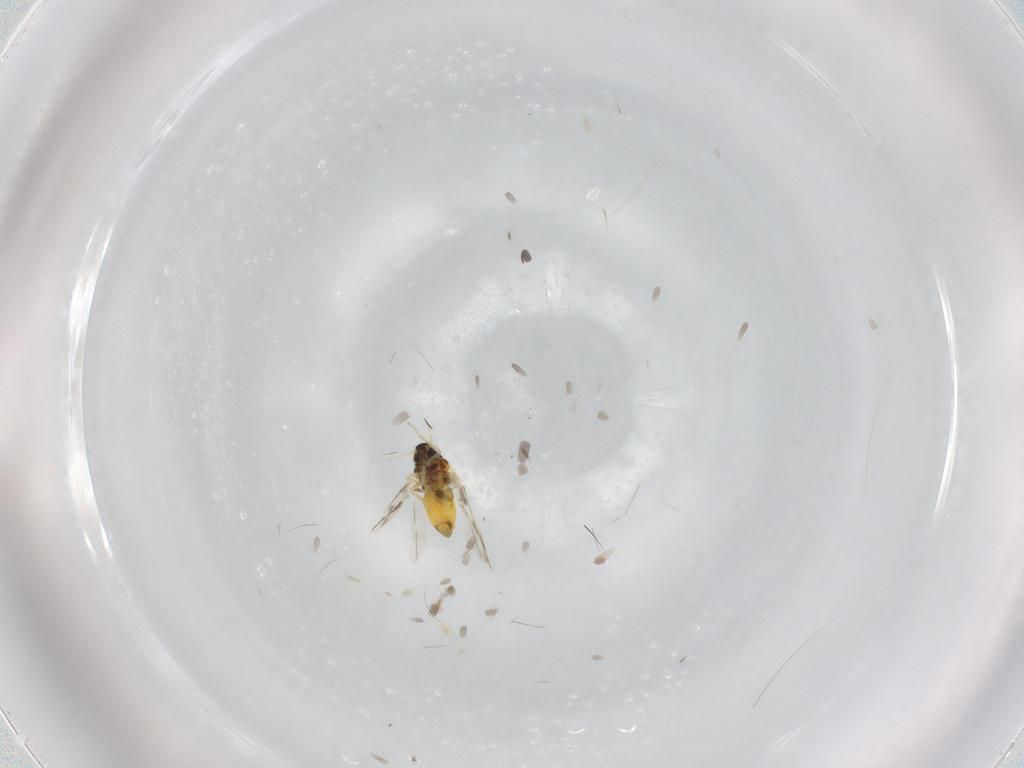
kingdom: Animalia
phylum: Arthropoda
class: Insecta
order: Hemiptera
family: Aleyrodidae
